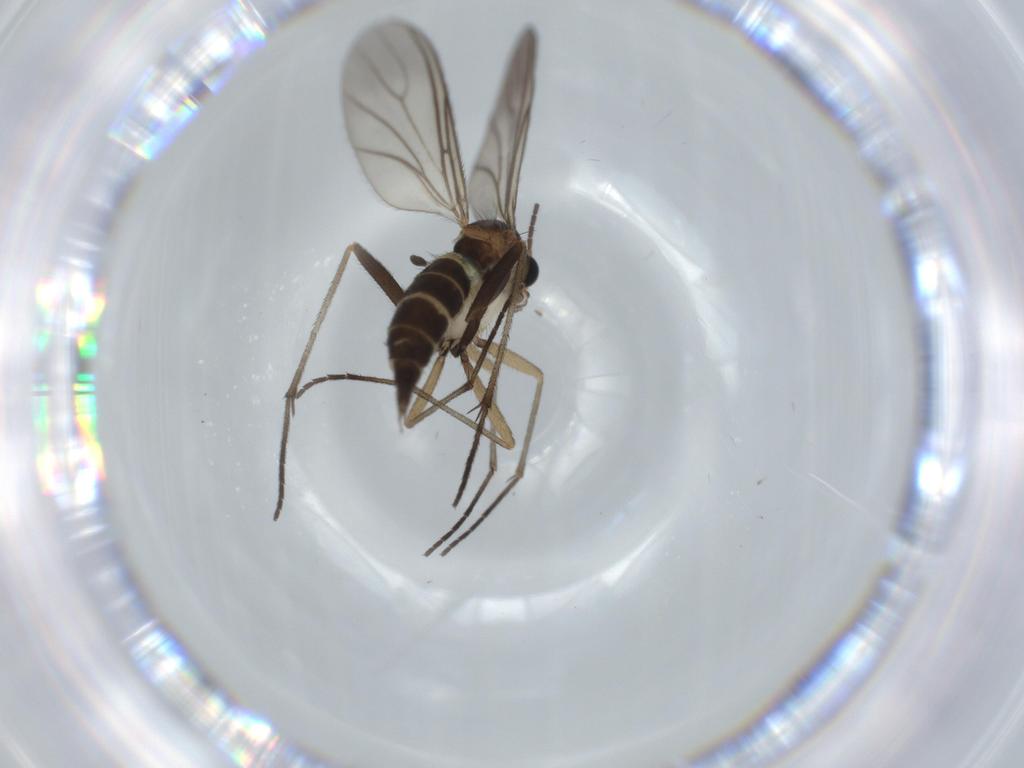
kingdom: Animalia
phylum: Arthropoda
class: Insecta
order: Diptera
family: Sciaridae
